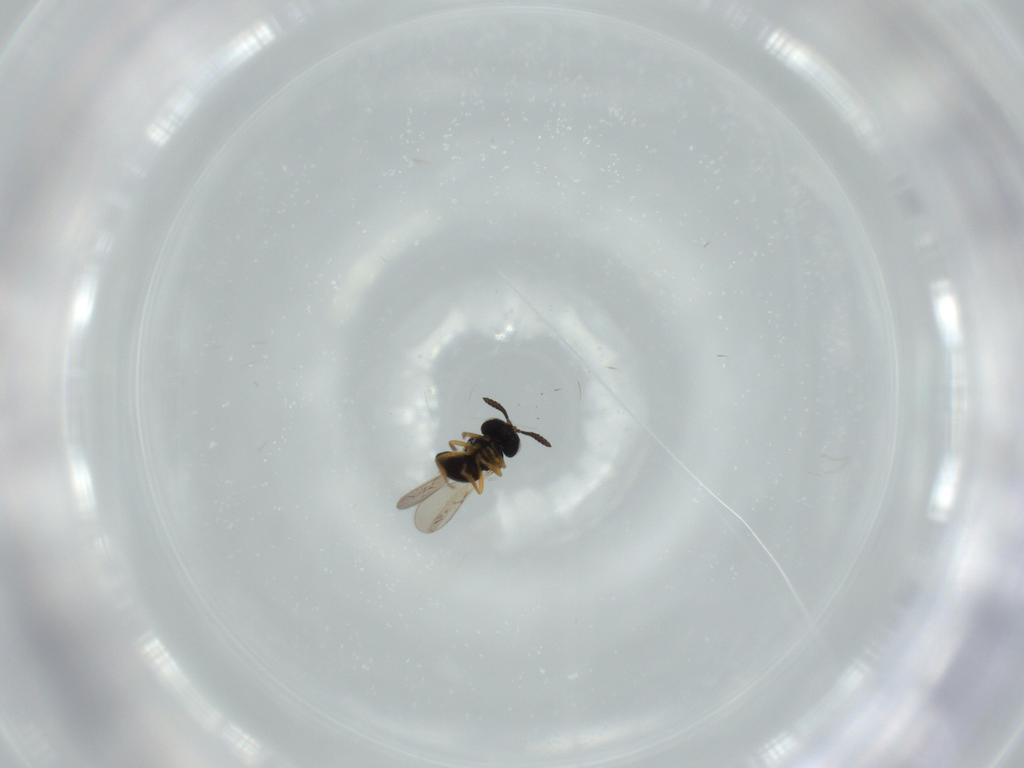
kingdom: Animalia
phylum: Arthropoda
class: Insecta
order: Hymenoptera
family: Scelionidae
